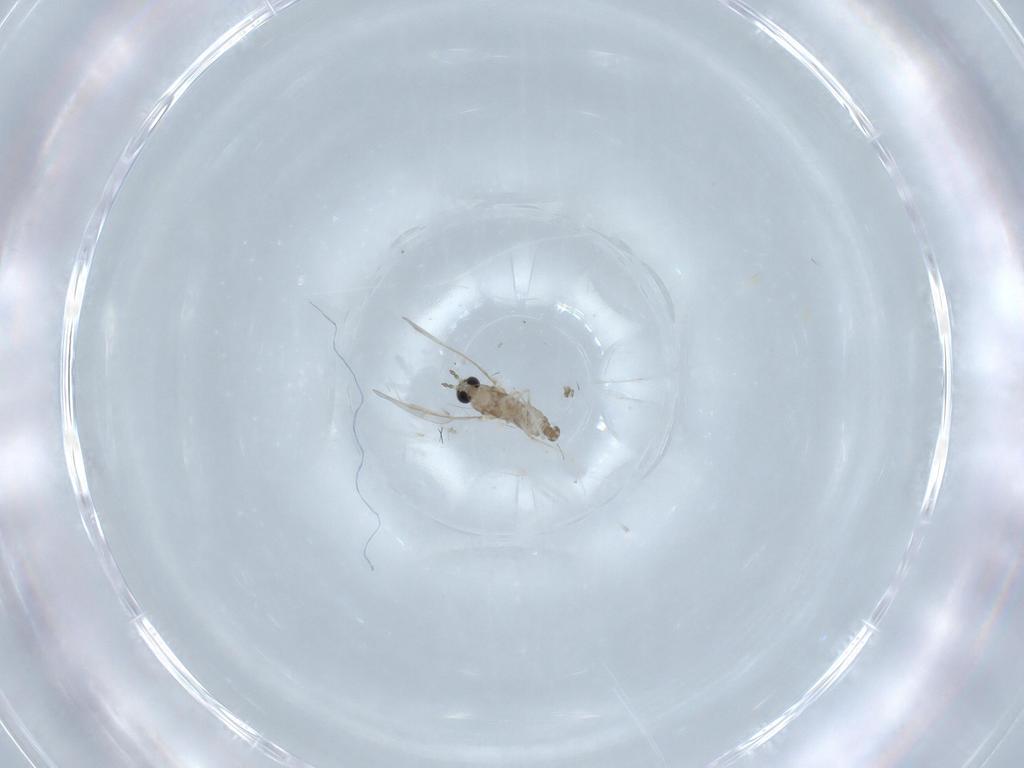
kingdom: Animalia
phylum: Arthropoda
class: Insecta
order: Diptera
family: Cecidomyiidae
